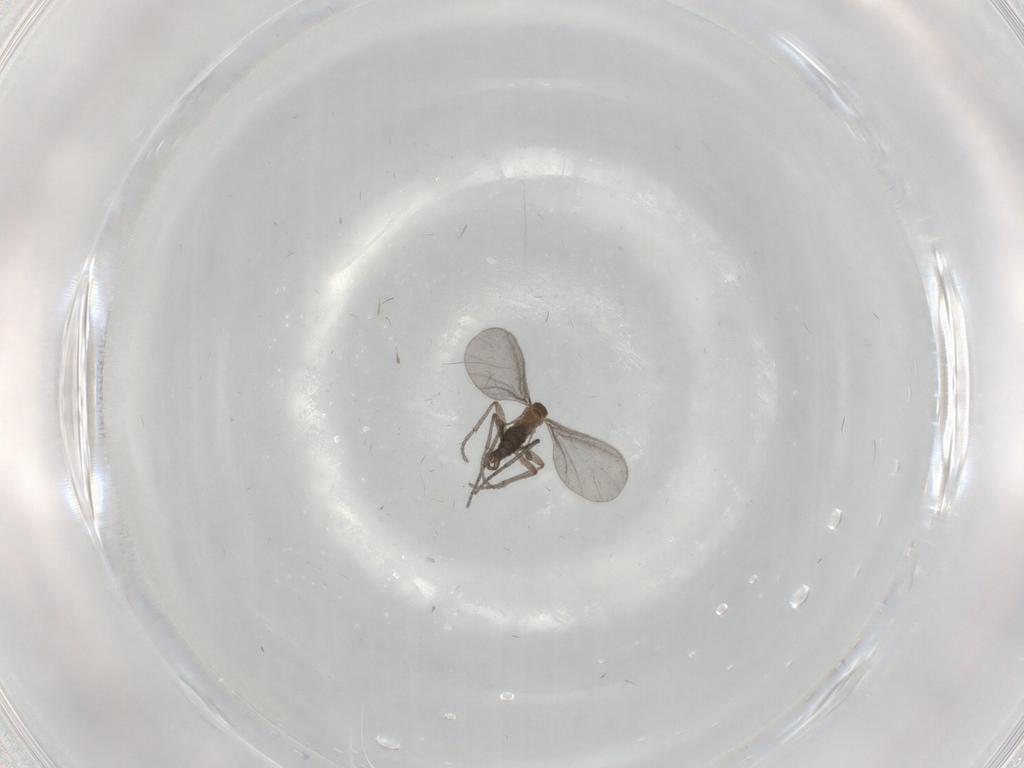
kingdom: Animalia
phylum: Arthropoda
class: Insecta
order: Diptera
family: Sciaridae
